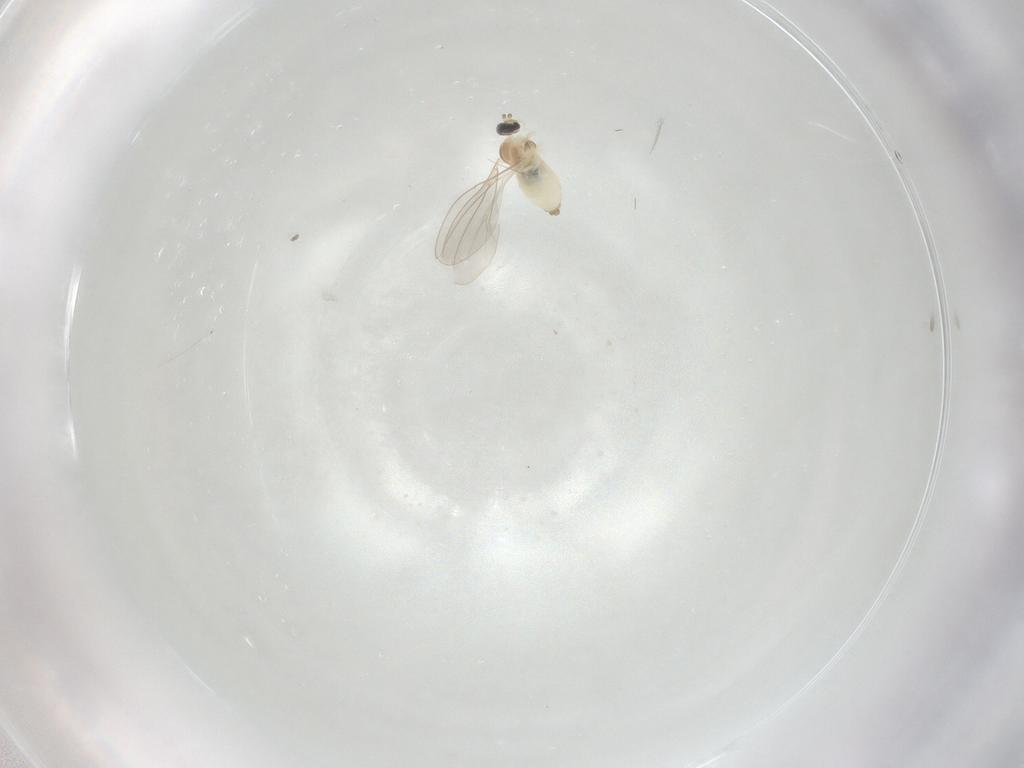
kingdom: Animalia
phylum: Arthropoda
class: Insecta
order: Diptera
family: Cecidomyiidae
